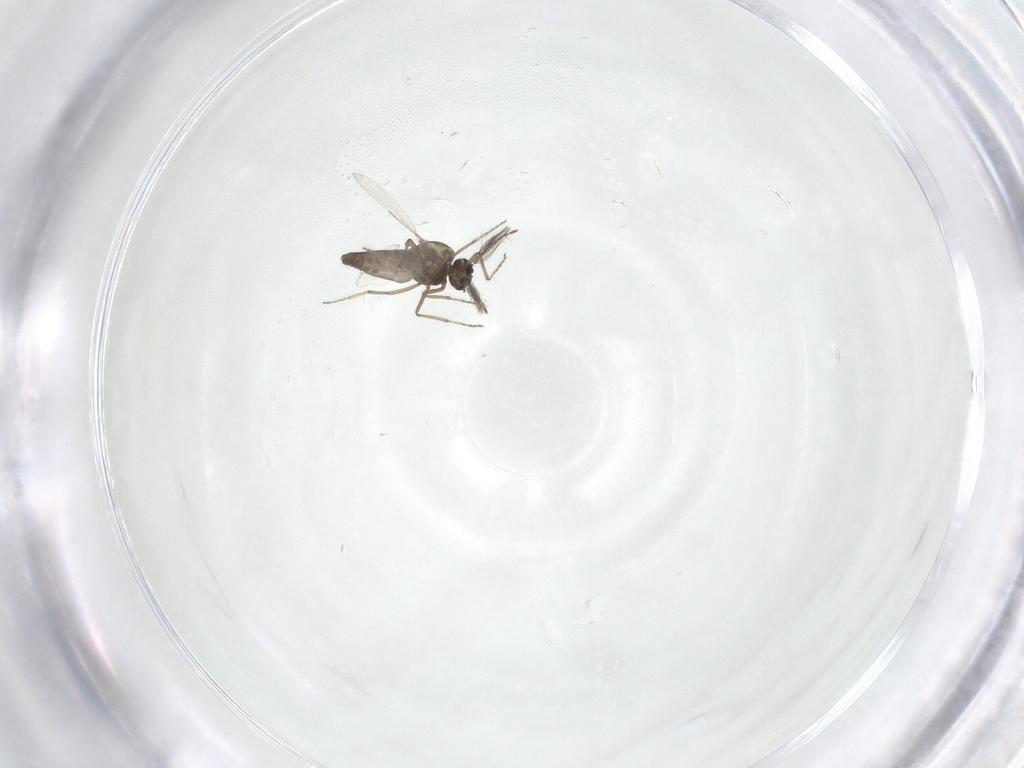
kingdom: Animalia
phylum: Arthropoda
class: Insecta
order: Diptera
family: Ceratopogonidae
